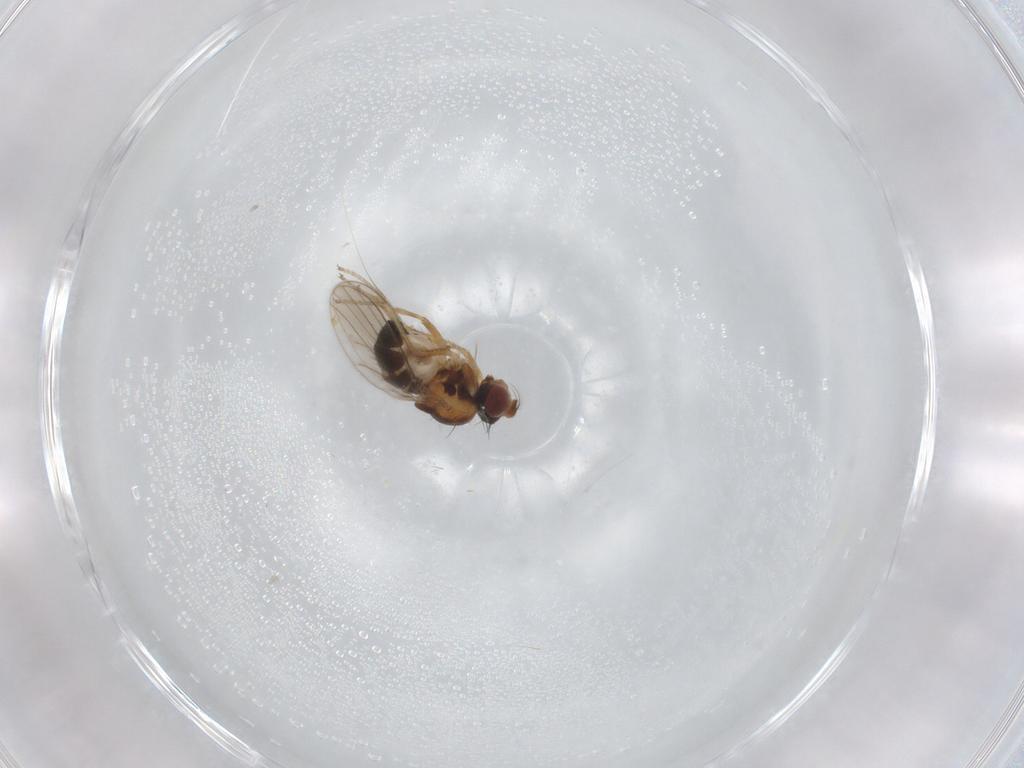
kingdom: Animalia
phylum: Arthropoda
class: Insecta
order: Diptera
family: Ephydridae
